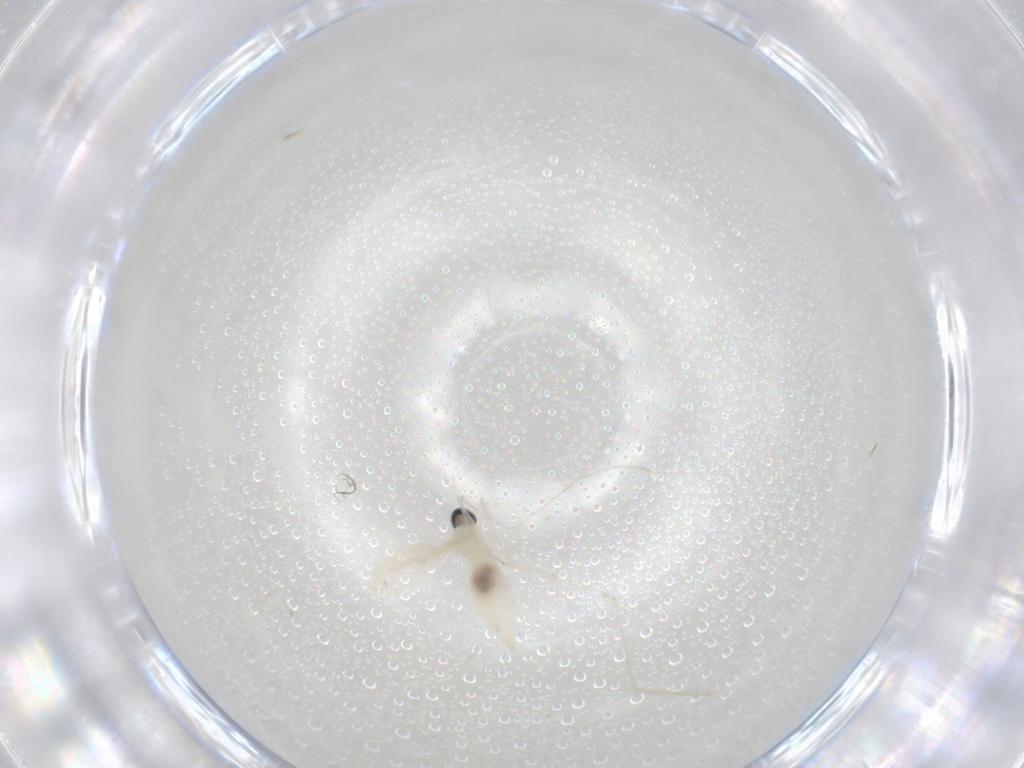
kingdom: Animalia
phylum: Arthropoda
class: Insecta
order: Diptera
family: Cecidomyiidae
